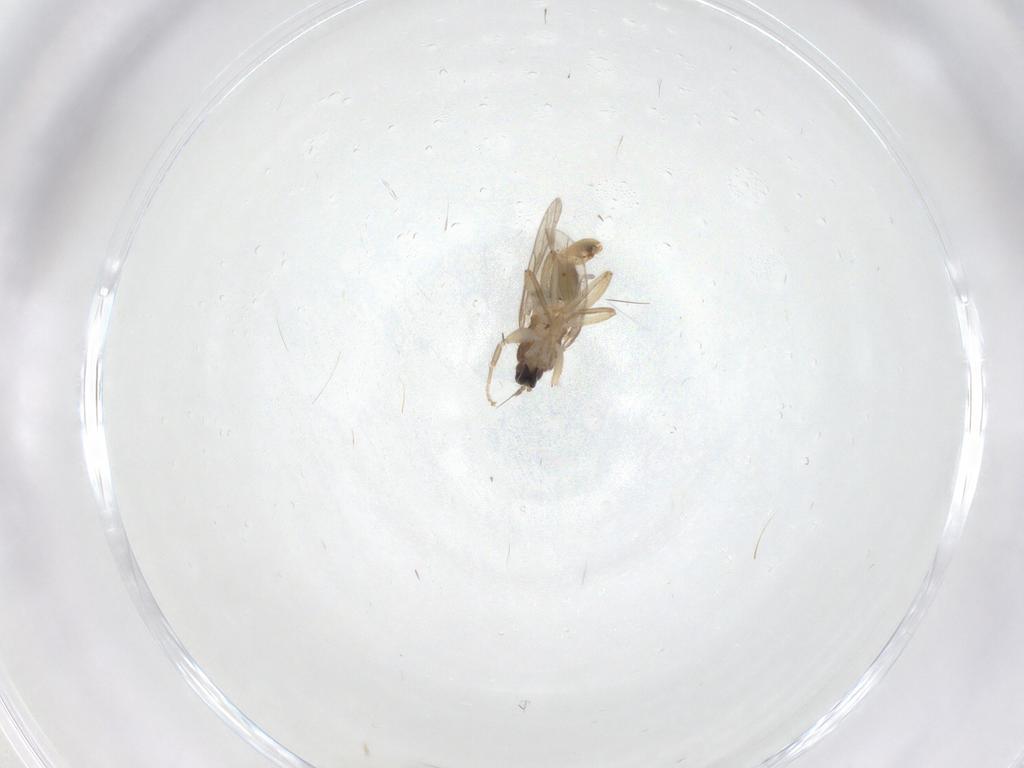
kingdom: Animalia
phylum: Arthropoda
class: Insecta
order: Diptera
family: Hybotidae
